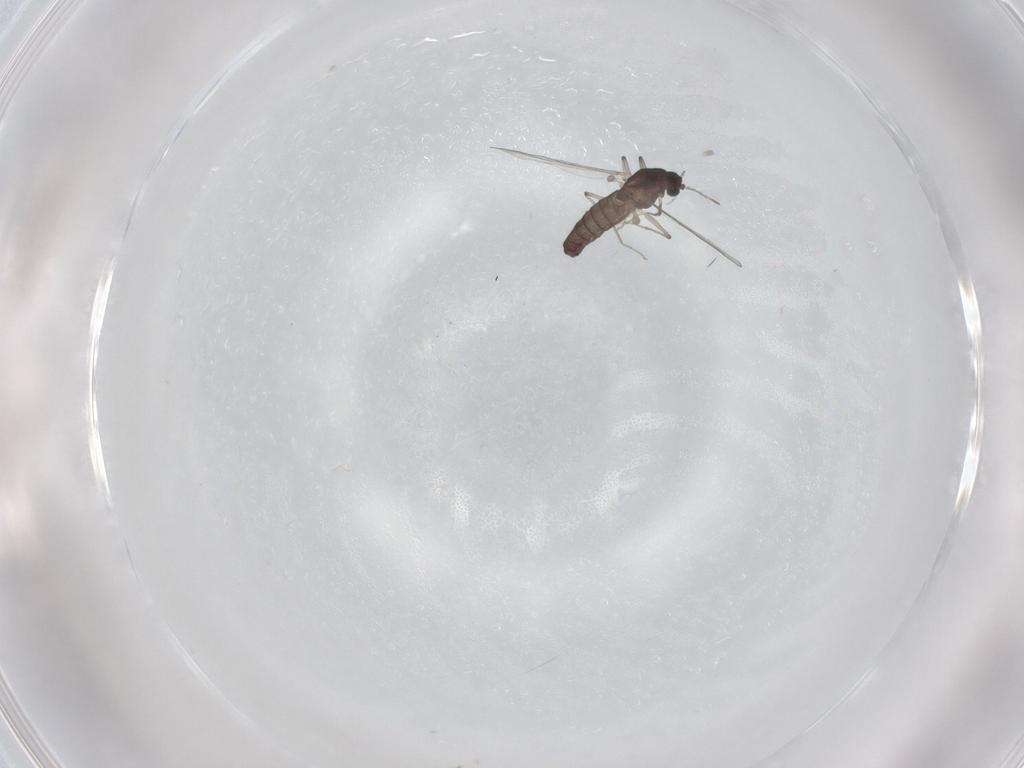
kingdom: Animalia
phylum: Arthropoda
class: Insecta
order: Diptera
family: Chironomidae
